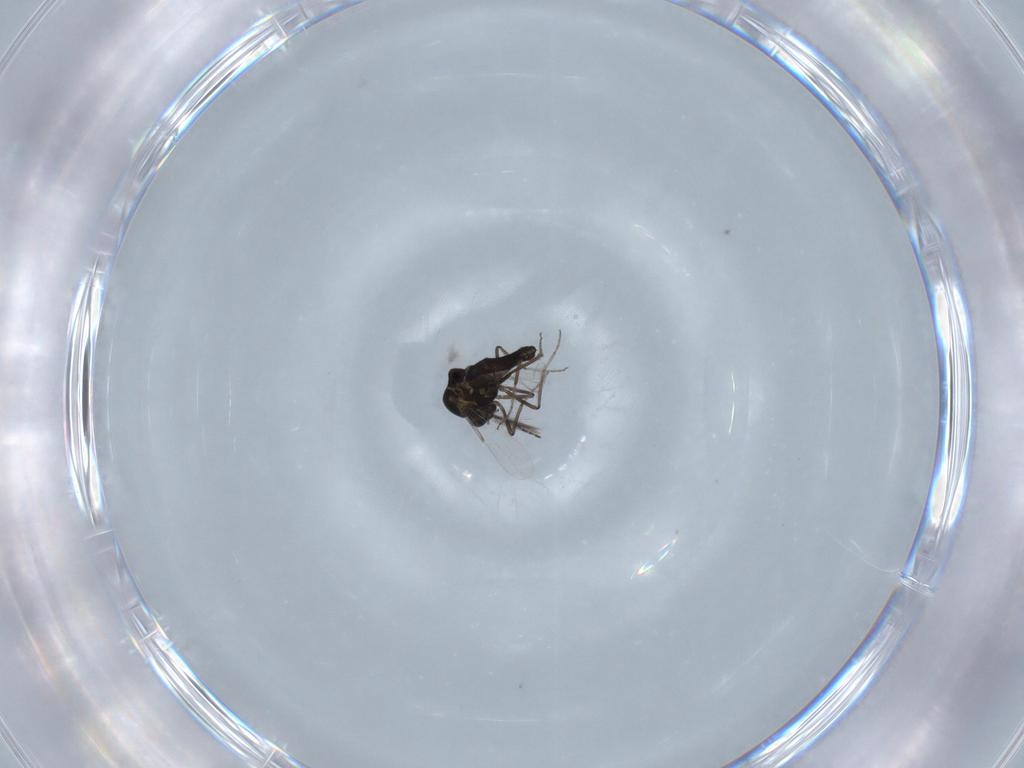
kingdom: Animalia
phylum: Arthropoda
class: Insecta
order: Diptera
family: Ceratopogonidae
